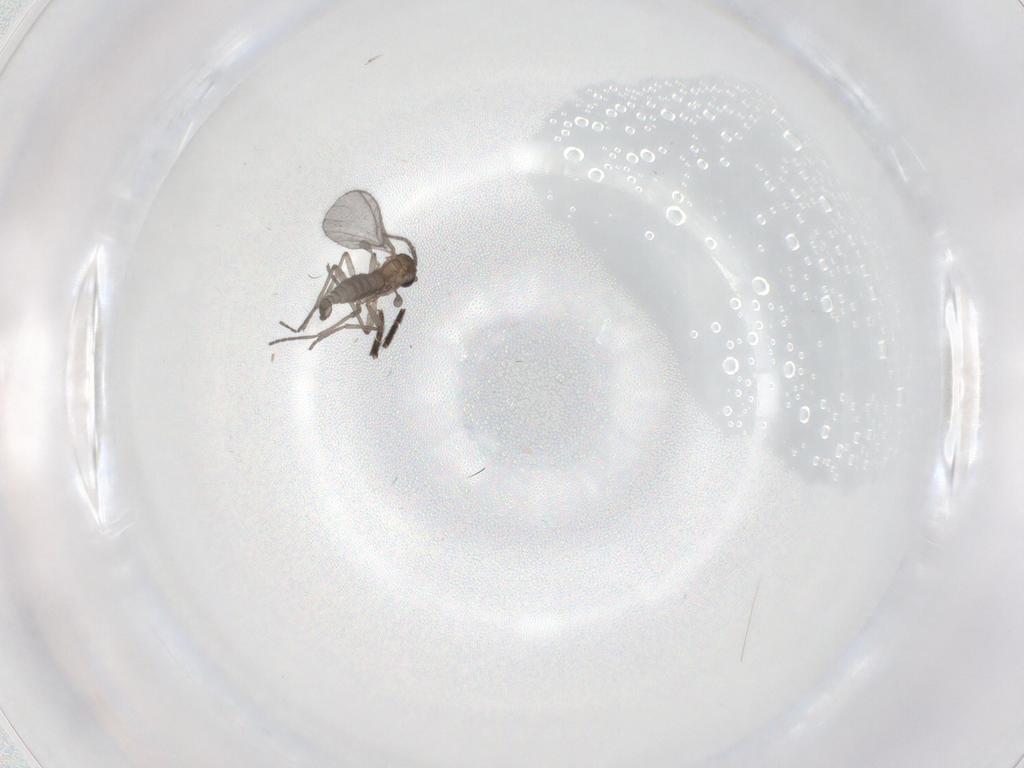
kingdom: Animalia
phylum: Arthropoda
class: Insecta
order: Diptera
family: Sciaridae
